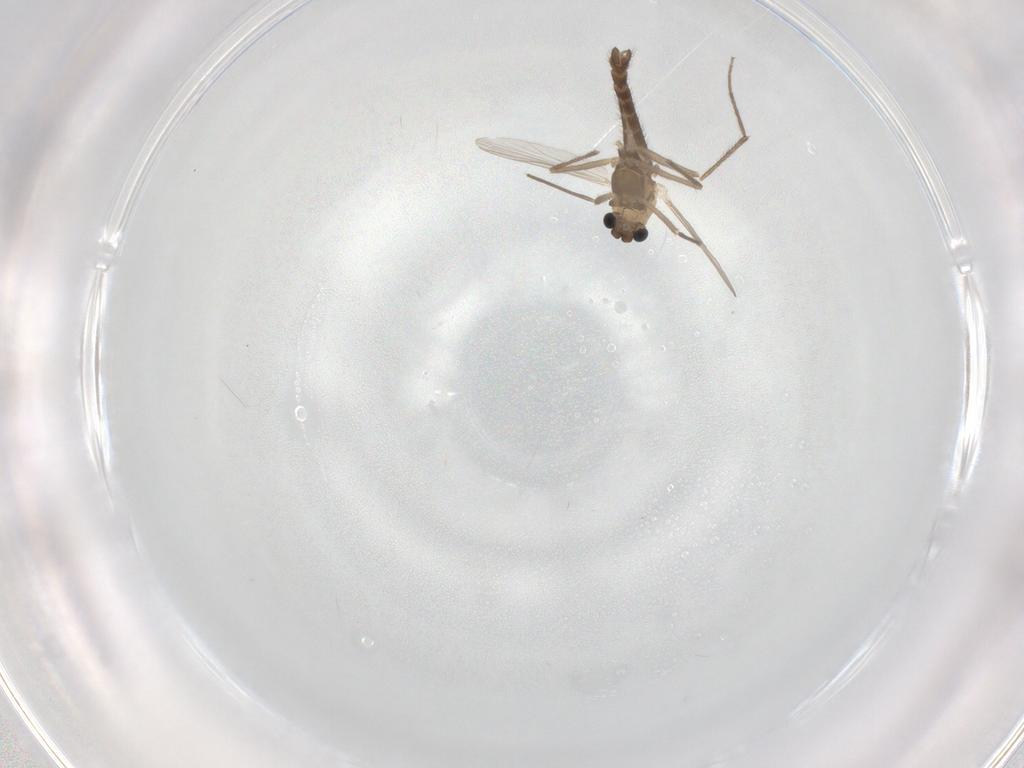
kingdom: Animalia
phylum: Arthropoda
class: Insecta
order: Diptera
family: Chironomidae
